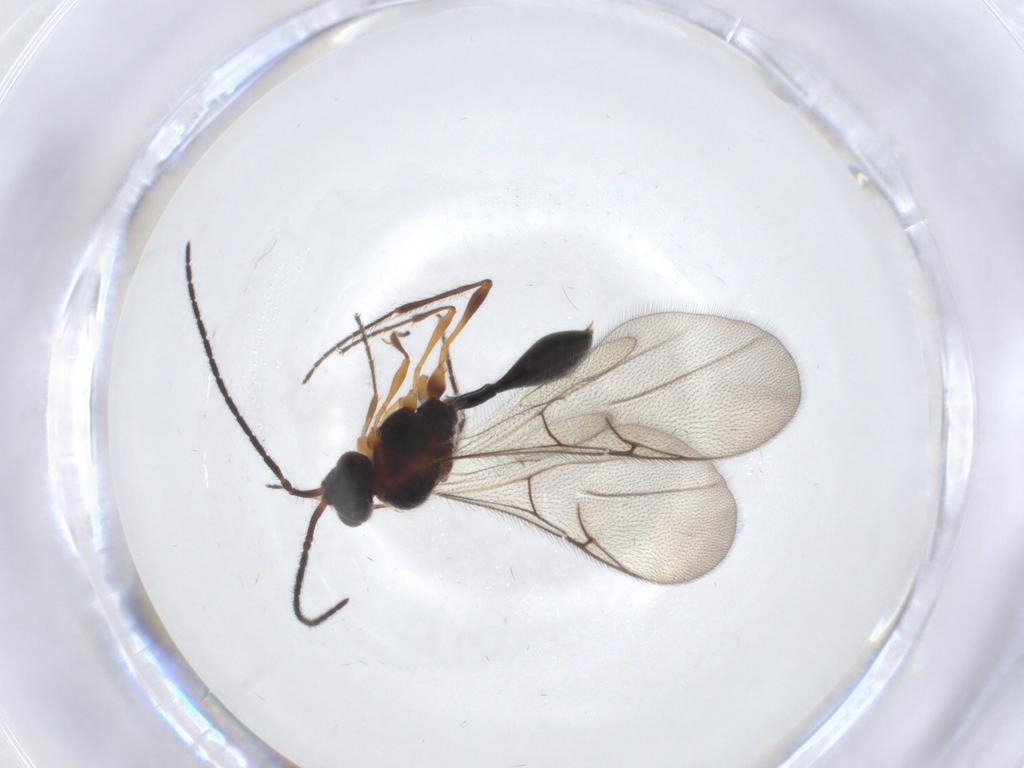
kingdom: Animalia
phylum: Arthropoda
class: Insecta
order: Hymenoptera
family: Diapriidae
